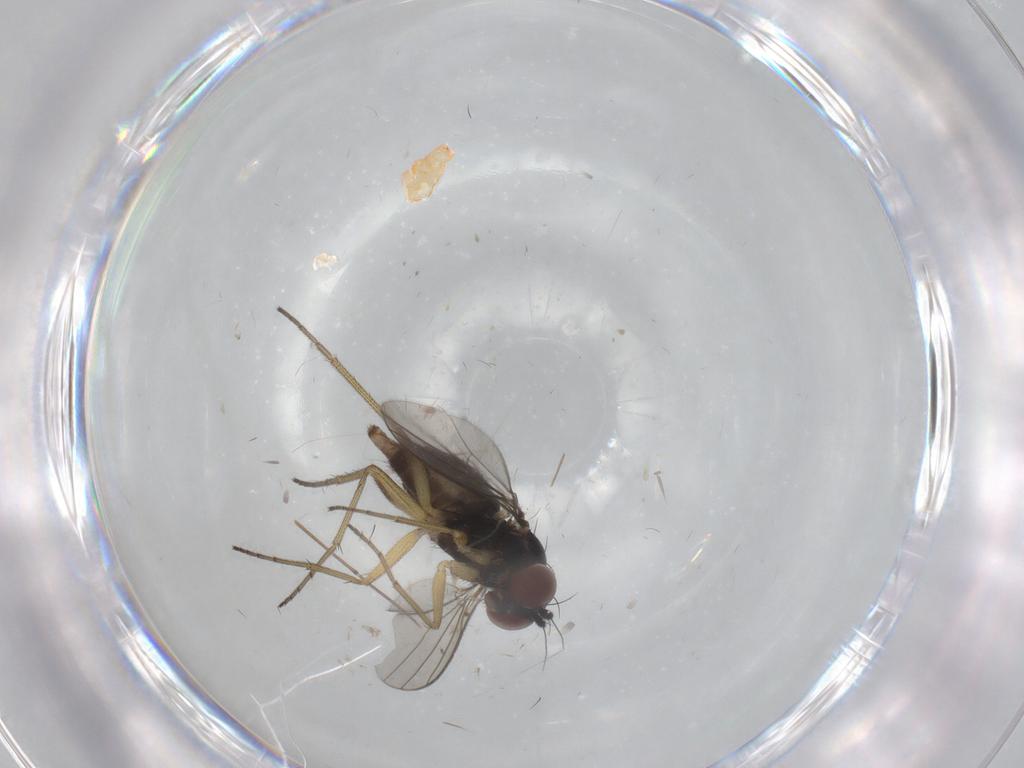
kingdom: Animalia
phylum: Arthropoda
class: Insecta
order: Diptera
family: Dolichopodidae
